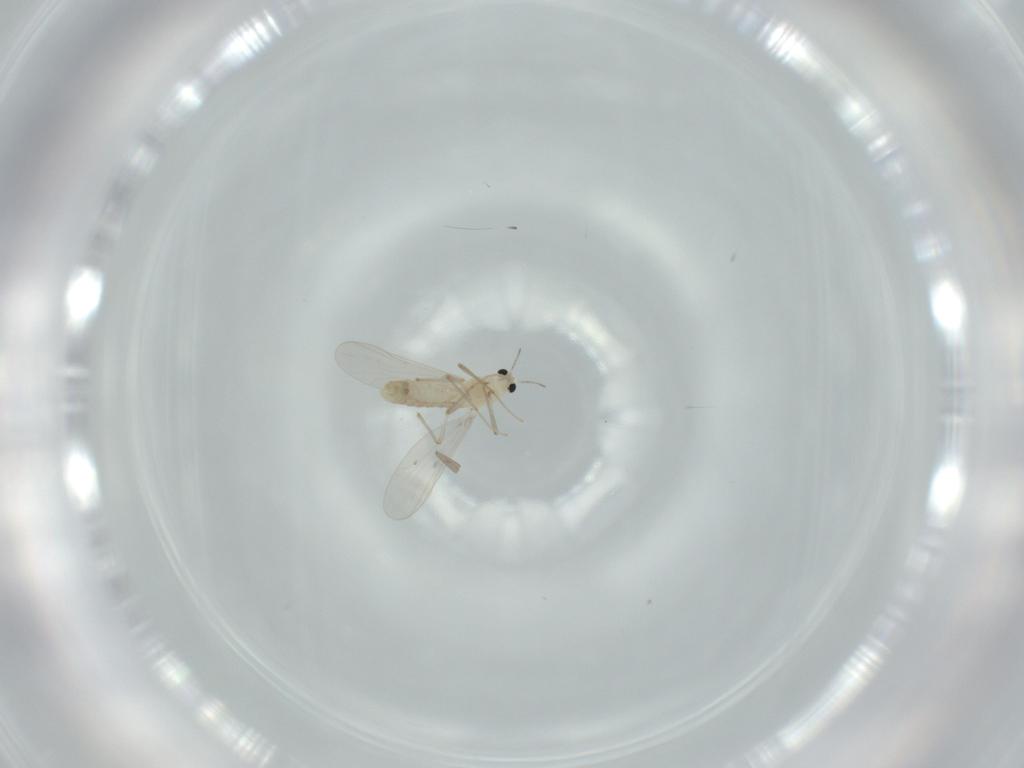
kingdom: Animalia
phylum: Arthropoda
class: Insecta
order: Diptera
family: Chironomidae
